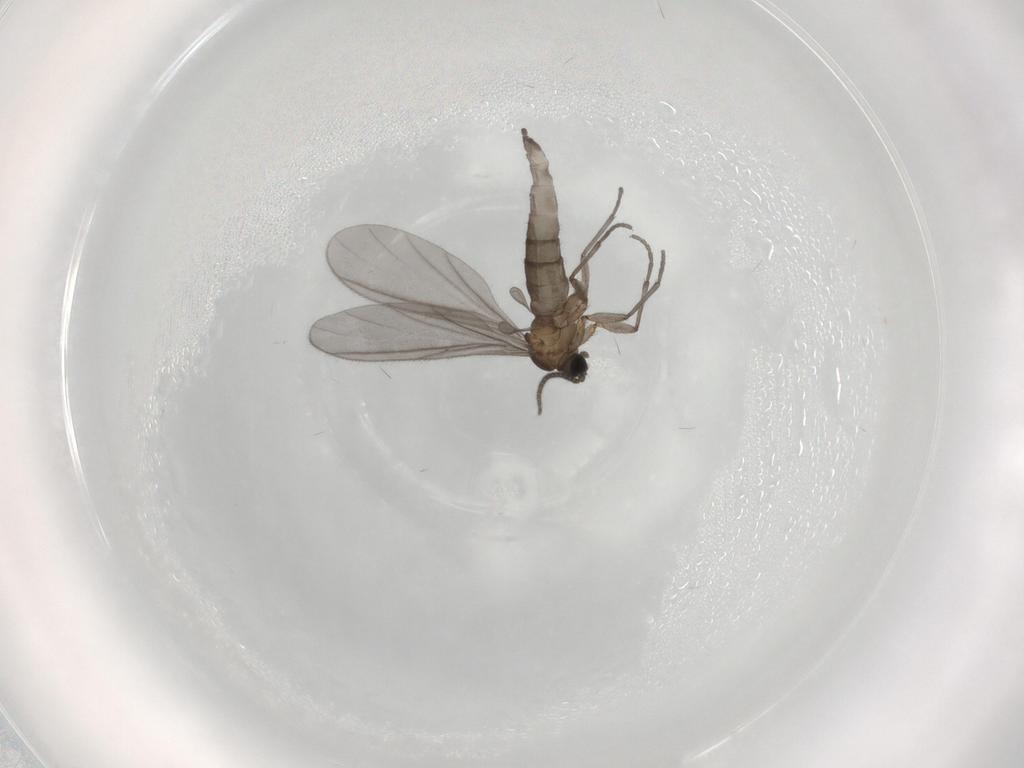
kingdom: Animalia
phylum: Arthropoda
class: Insecta
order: Diptera
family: Sciaridae
